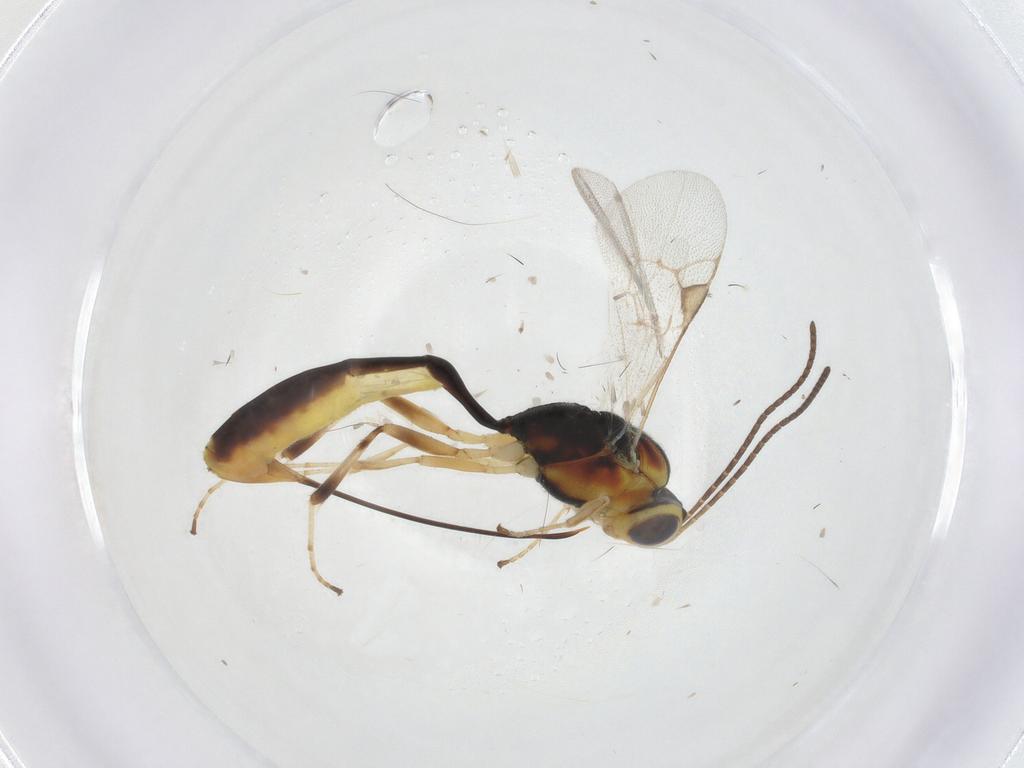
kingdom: Animalia
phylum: Arthropoda
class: Insecta
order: Hymenoptera
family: Ichneumonidae
